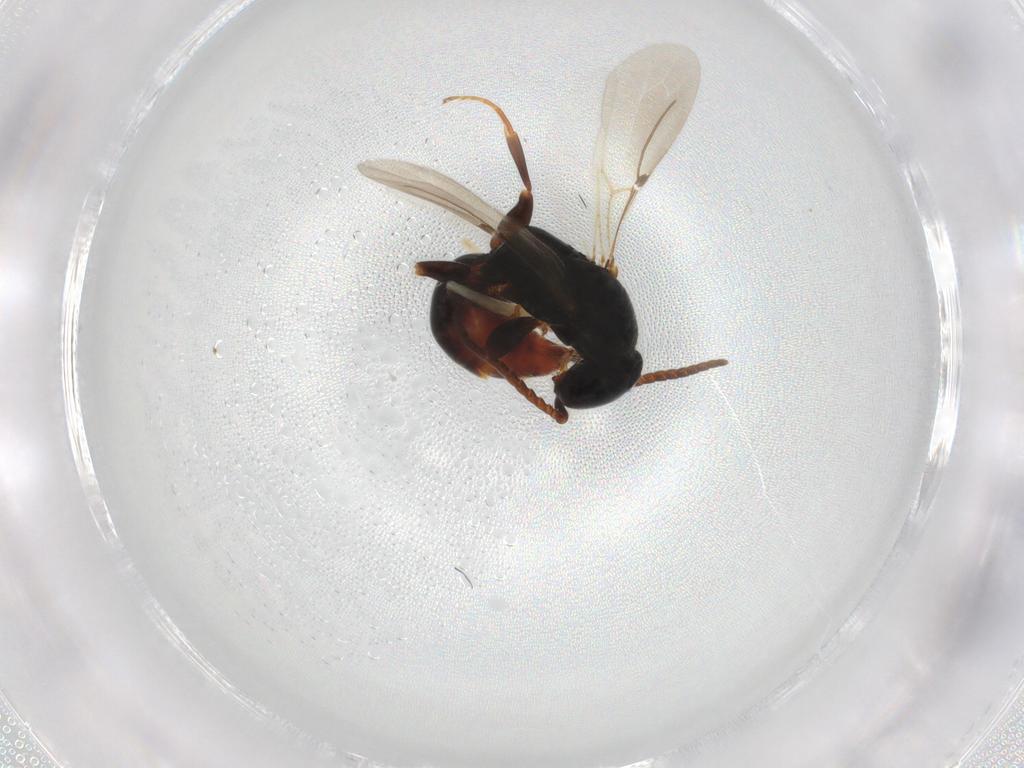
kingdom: Animalia
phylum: Arthropoda
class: Insecta
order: Hymenoptera
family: Bethylidae
